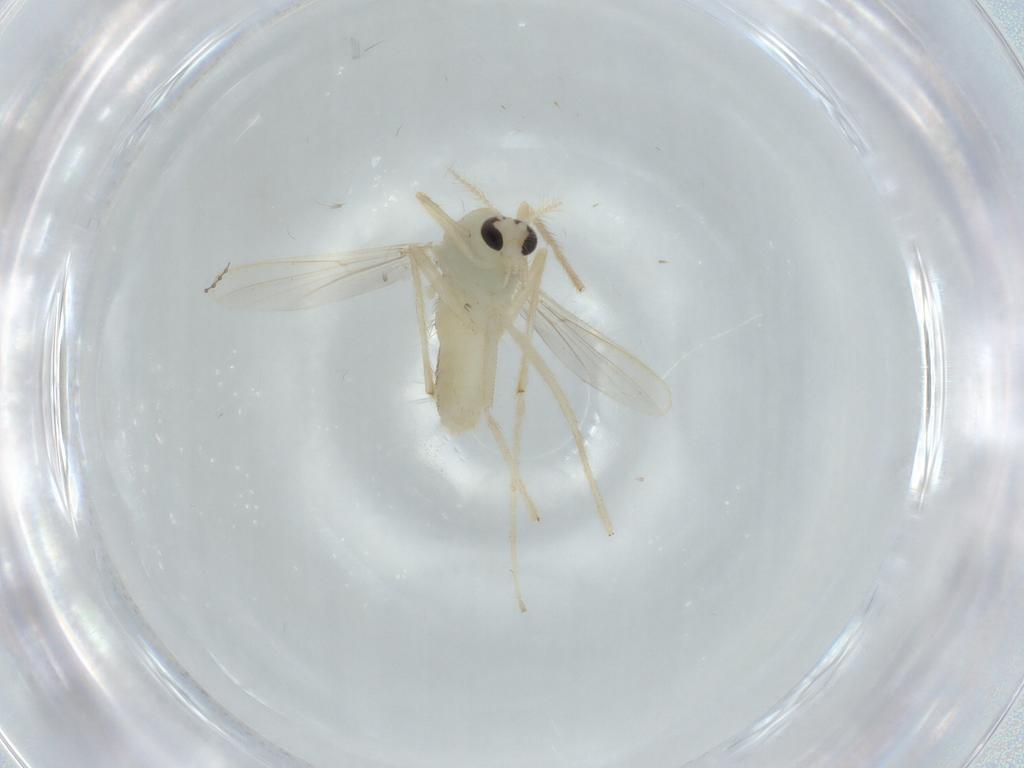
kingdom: Animalia
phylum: Arthropoda
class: Insecta
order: Diptera
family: Chironomidae
